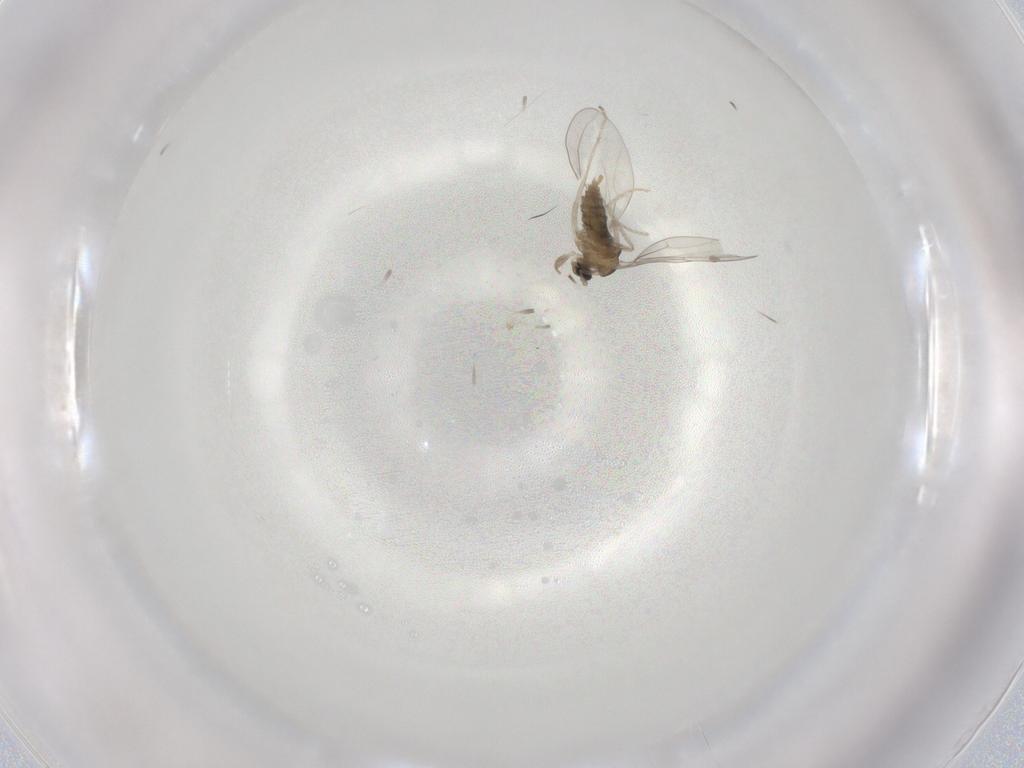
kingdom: Animalia
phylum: Arthropoda
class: Insecta
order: Diptera
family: Cecidomyiidae
